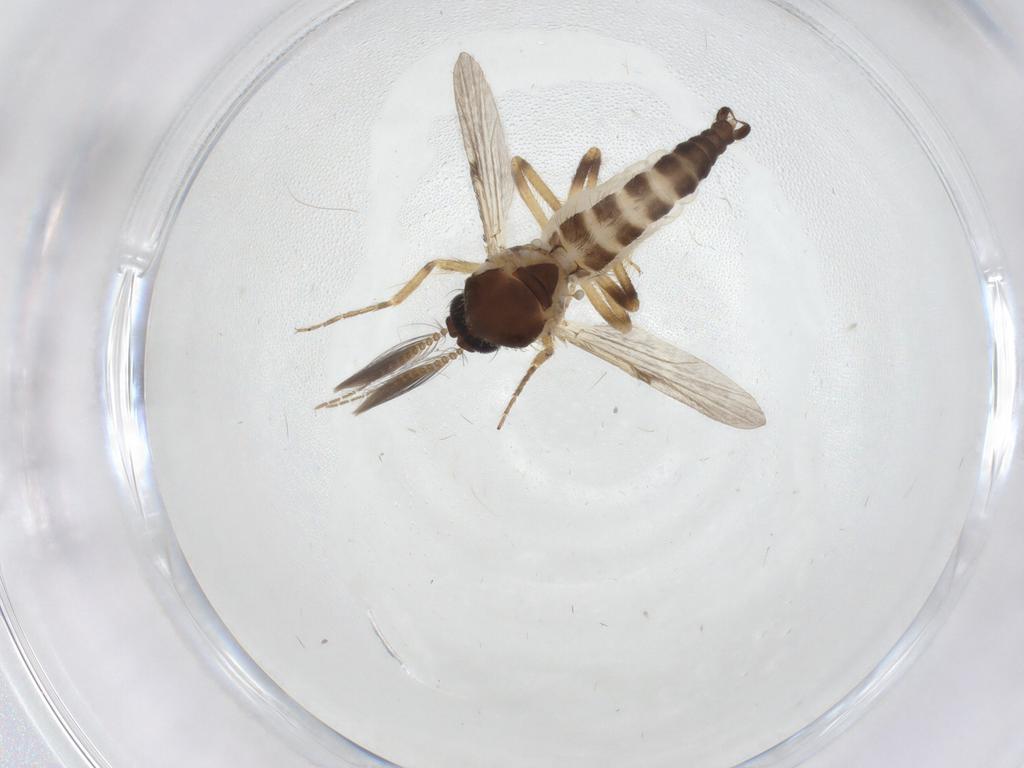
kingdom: Animalia
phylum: Arthropoda
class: Insecta
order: Diptera
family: Ceratopogonidae
